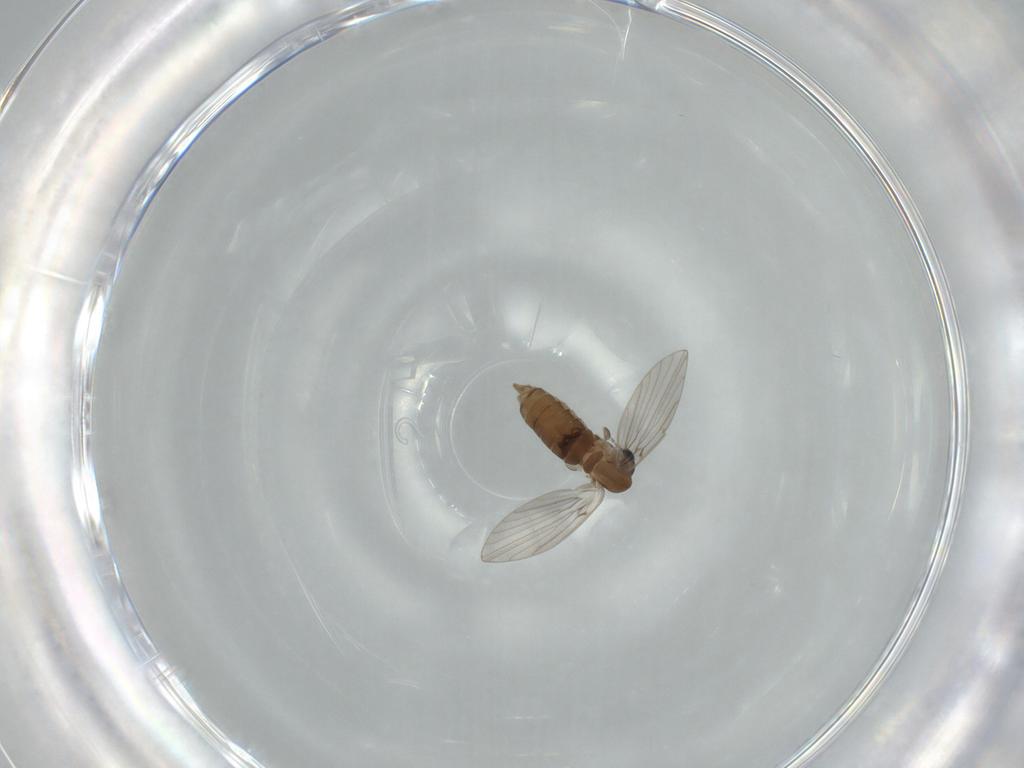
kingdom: Animalia
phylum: Arthropoda
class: Insecta
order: Diptera
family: Psychodidae
